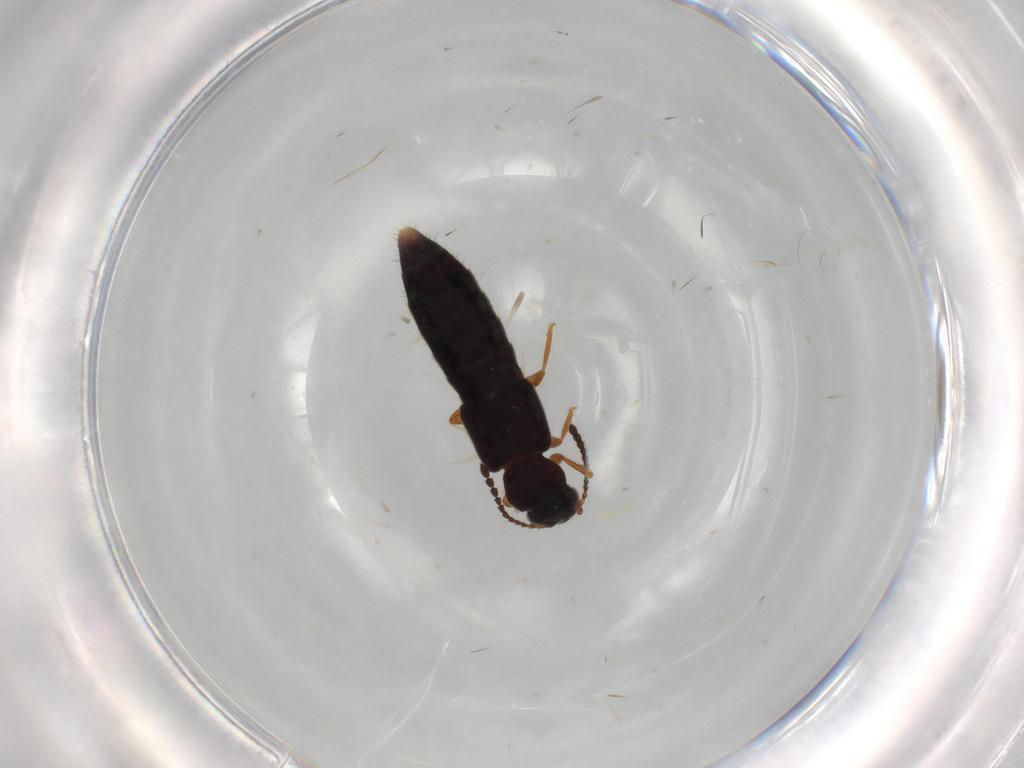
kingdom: Animalia
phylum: Arthropoda
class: Insecta
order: Coleoptera
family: Staphylinidae
